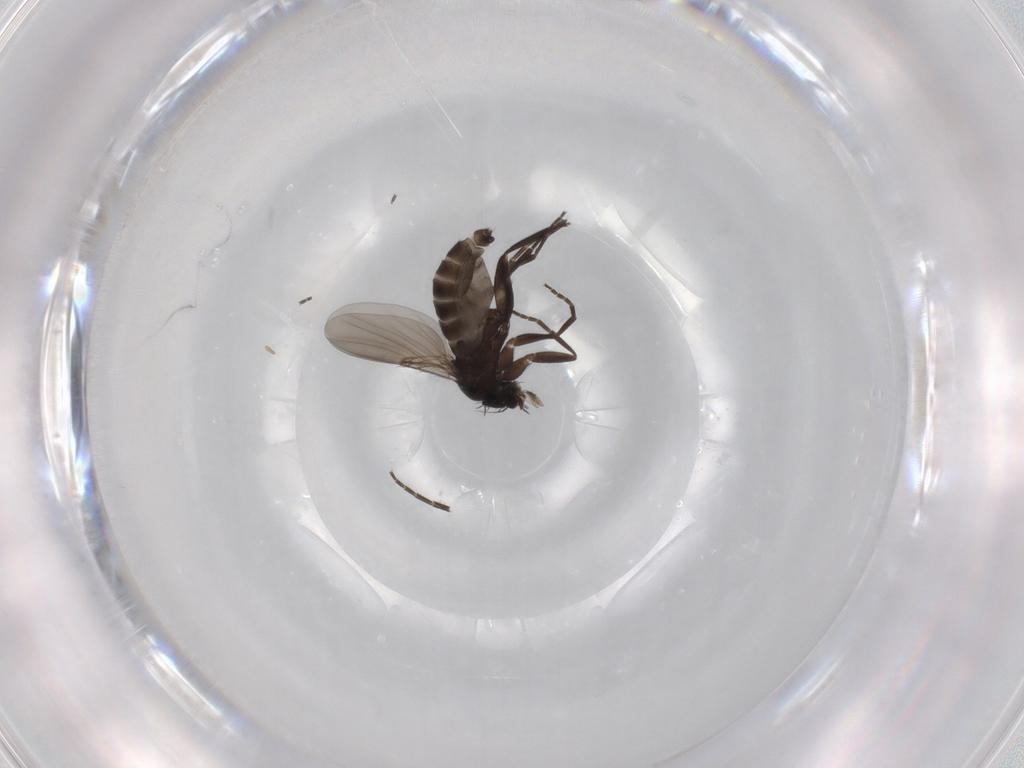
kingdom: Animalia
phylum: Arthropoda
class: Insecta
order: Diptera
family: Phoridae
